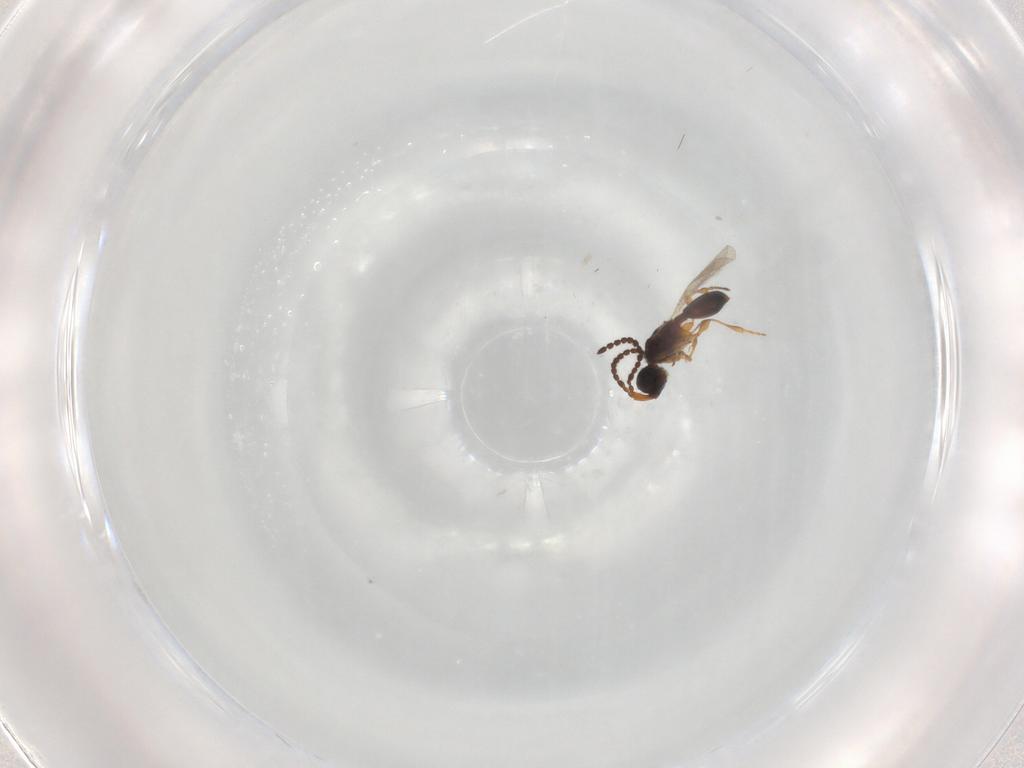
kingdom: Animalia
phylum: Arthropoda
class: Insecta
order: Hymenoptera
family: Diapriidae
